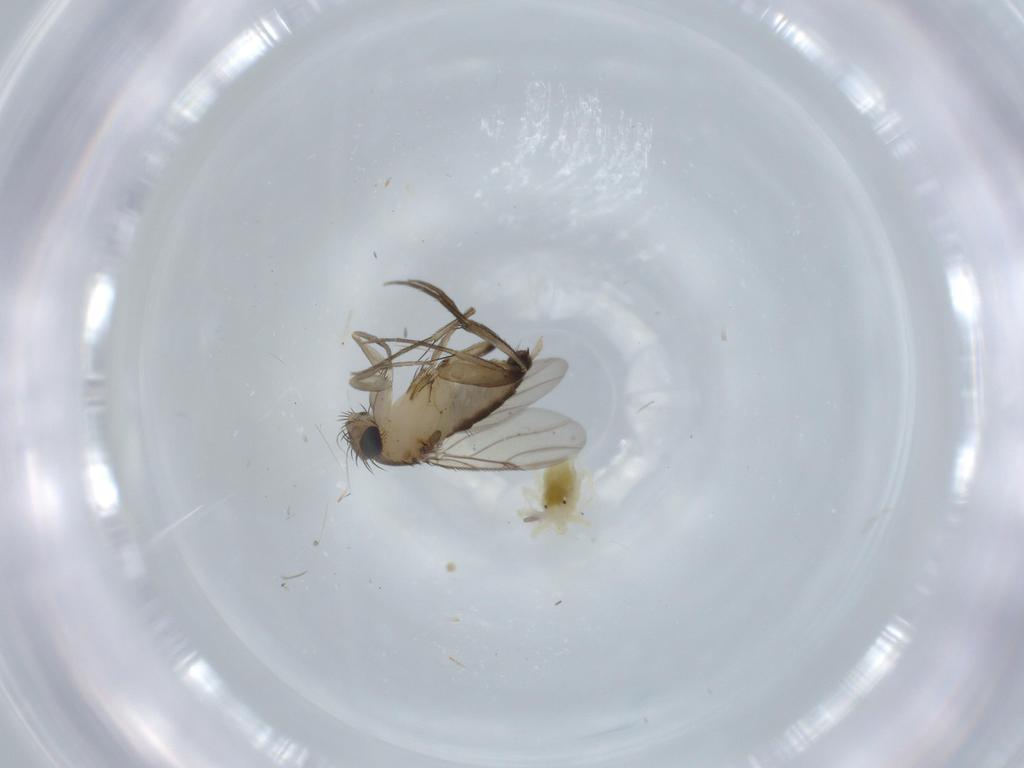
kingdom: Animalia
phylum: Arthropoda
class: Insecta
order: Diptera
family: Phoridae
